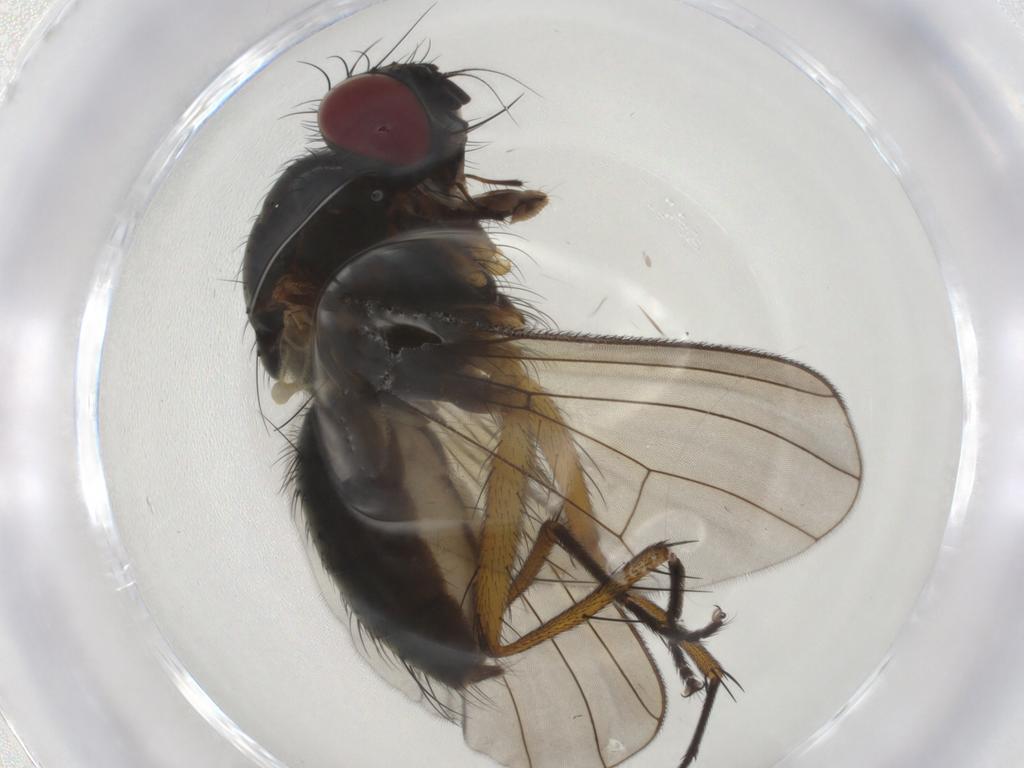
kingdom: Animalia
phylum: Arthropoda
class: Insecta
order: Diptera
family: Muscidae
